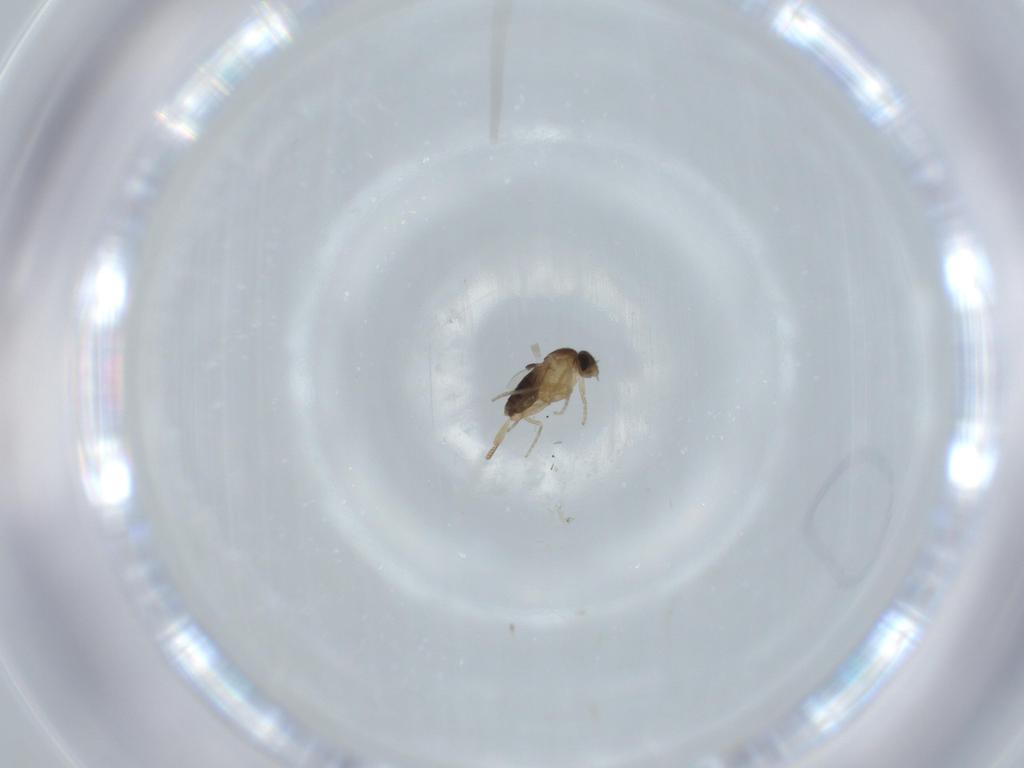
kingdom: Animalia
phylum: Arthropoda
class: Insecta
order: Diptera
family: Phoridae
